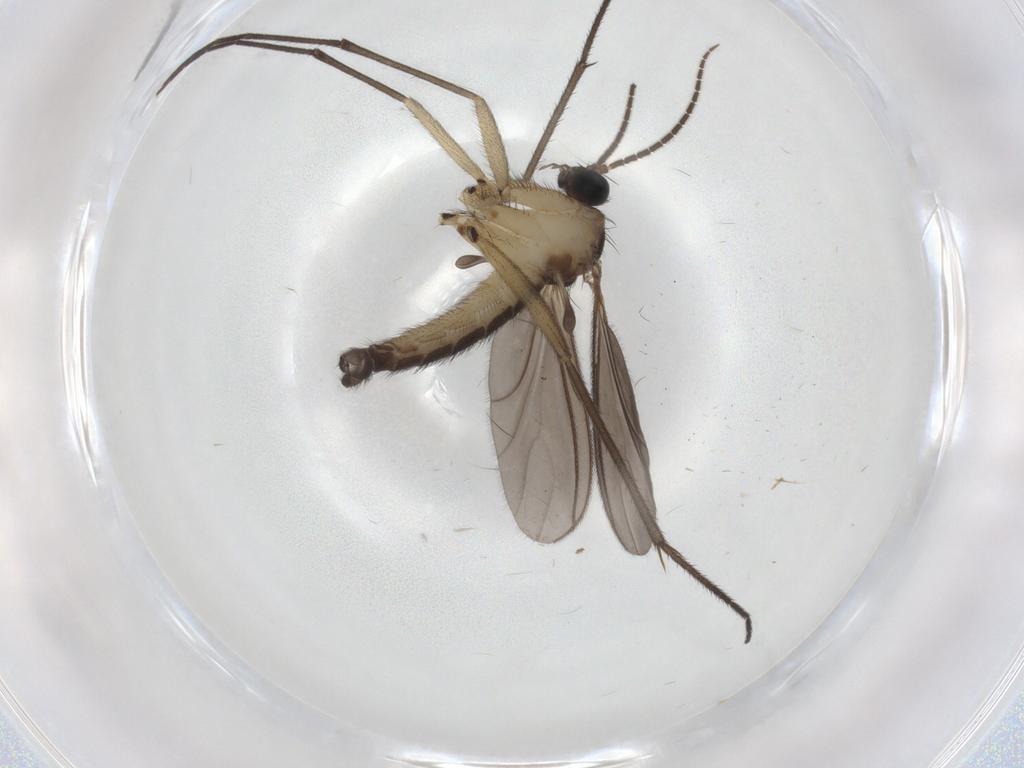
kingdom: Animalia
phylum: Arthropoda
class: Insecta
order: Diptera
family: Sciaridae
